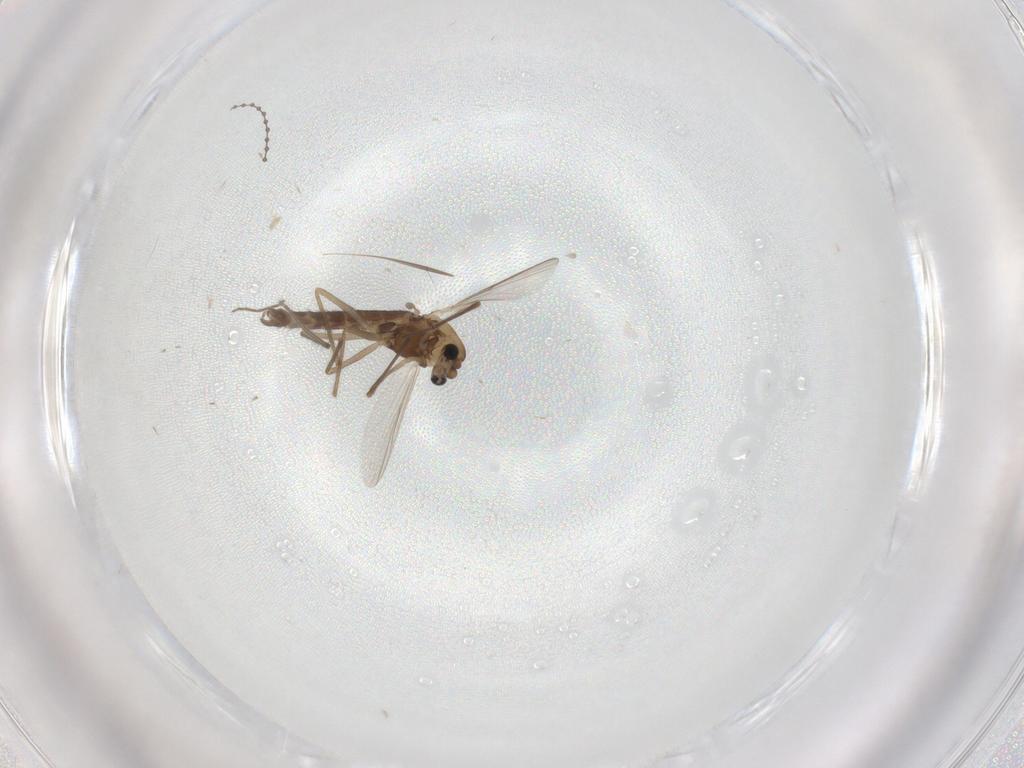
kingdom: Animalia
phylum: Arthropoda
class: Insecta
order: Diptera
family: Chironomidae
